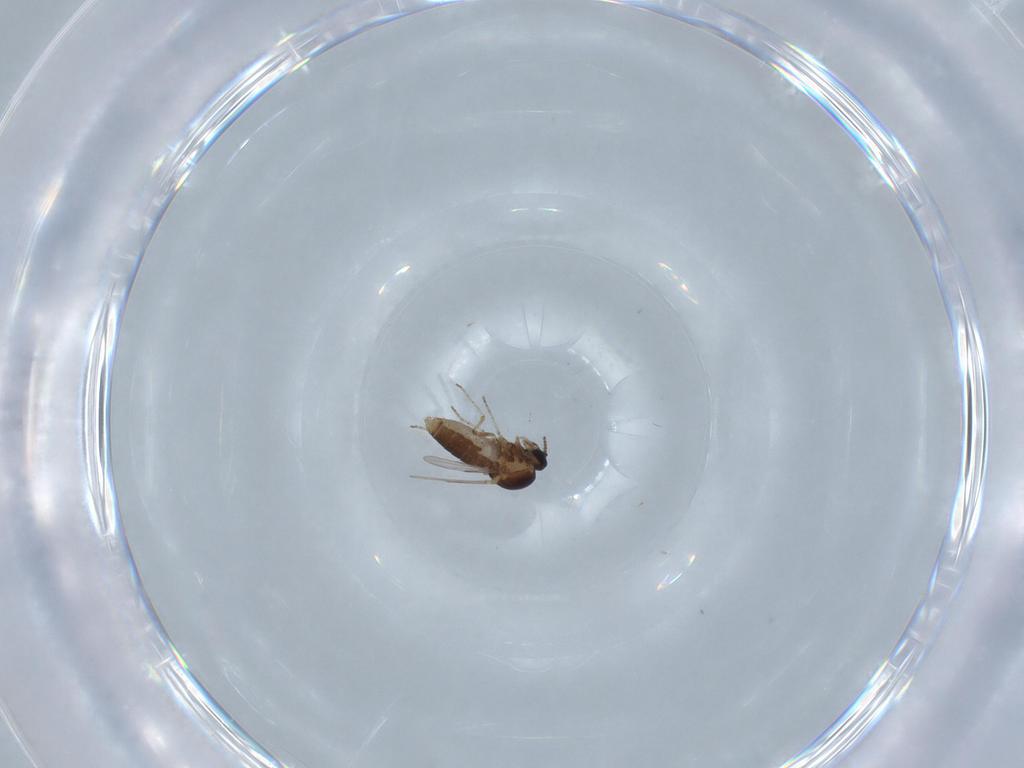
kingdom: Animalia
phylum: Arthropoda
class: Insecta
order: Diptera
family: Ceratopogonidae
